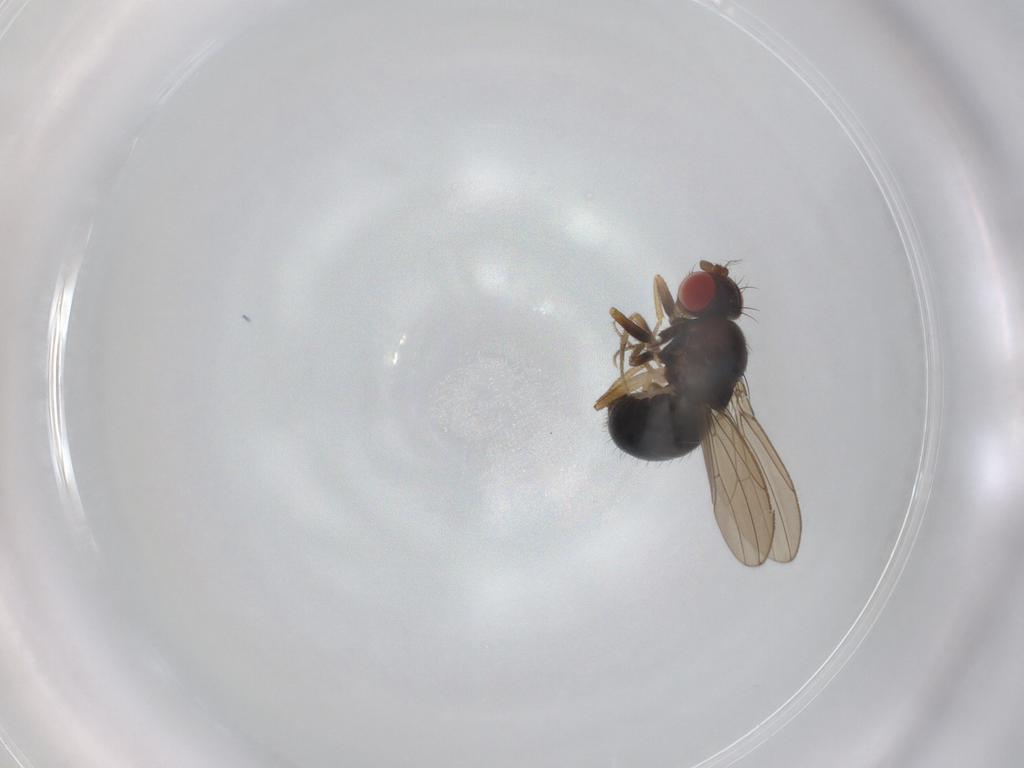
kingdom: Animalia
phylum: Arthropoda
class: Insecta
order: Diptera
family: Drosophilidae
